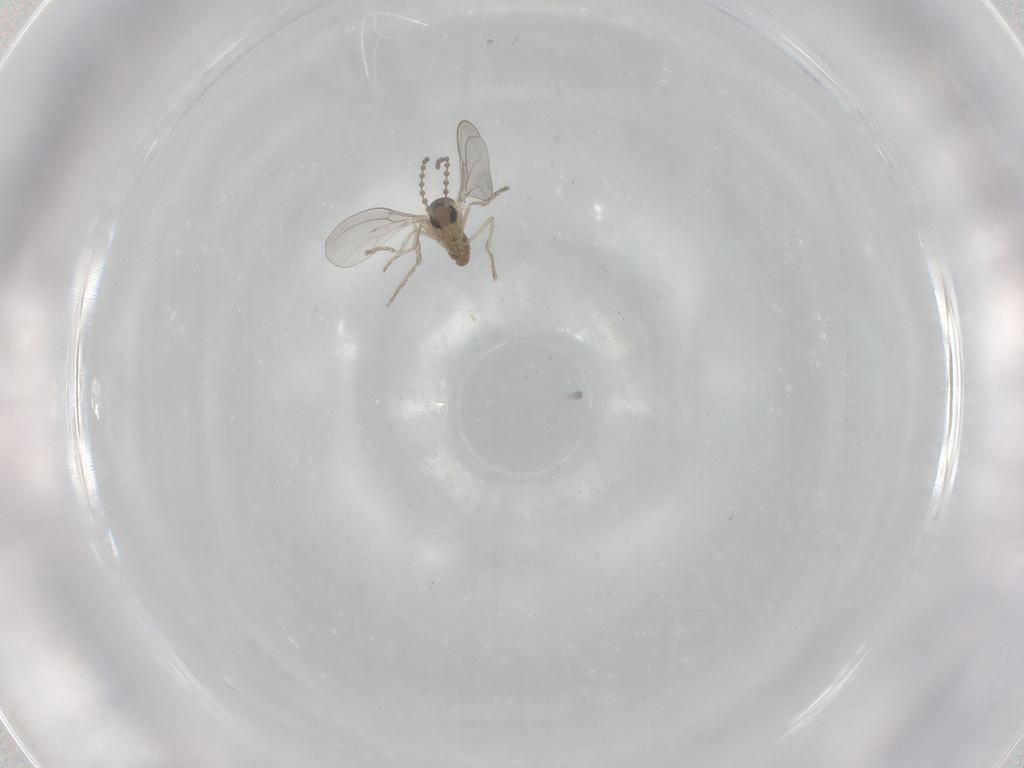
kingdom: Animalia
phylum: Arthropoda
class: Insecta
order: Diptera
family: Cecidomyiidae
